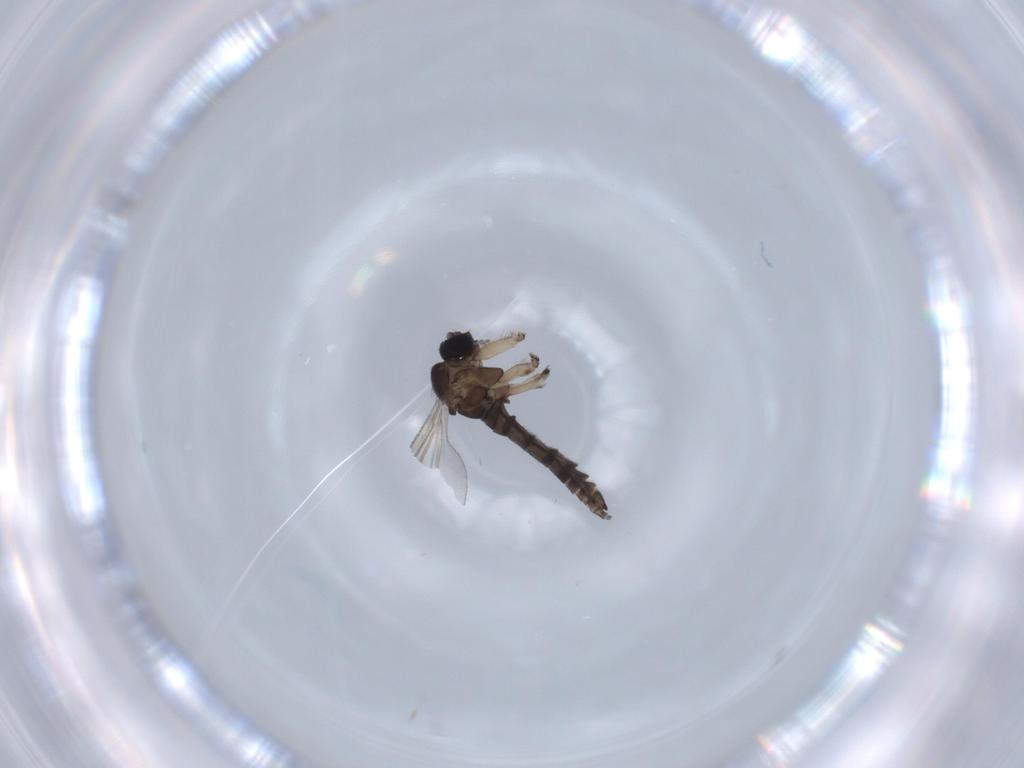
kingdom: Animalia
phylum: Arthropoda
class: Insecta
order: Diptera
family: Sciaridae
